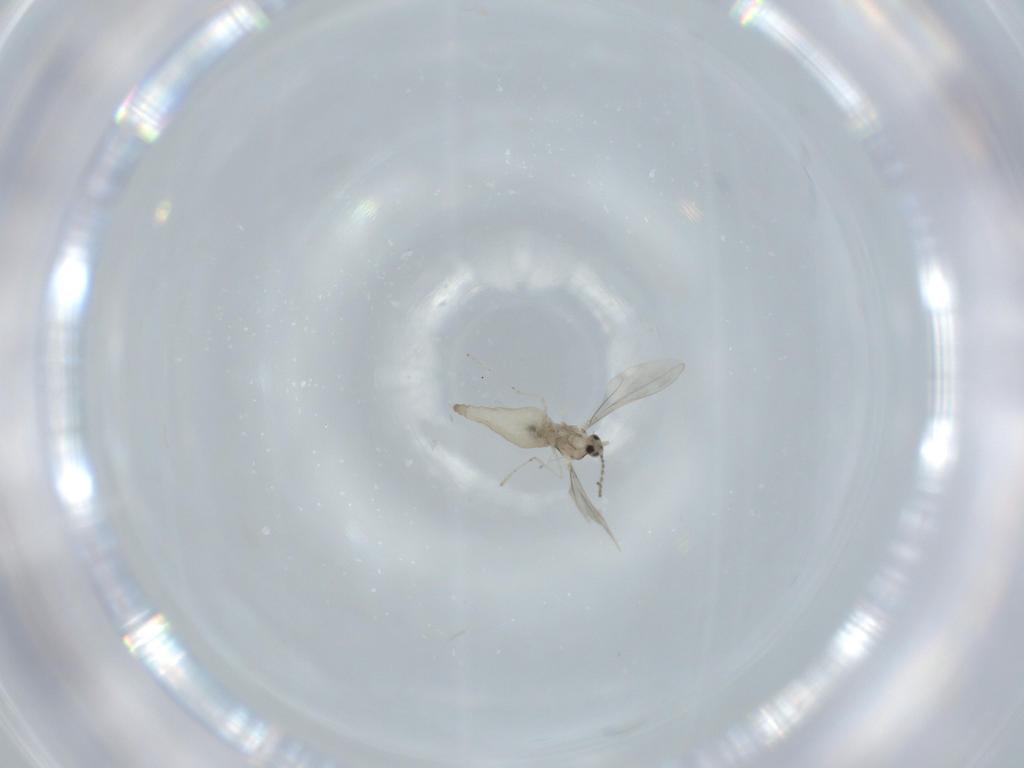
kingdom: Animalia
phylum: Arthropoda
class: Insecta
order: Diptera
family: Cecidomyiidae
